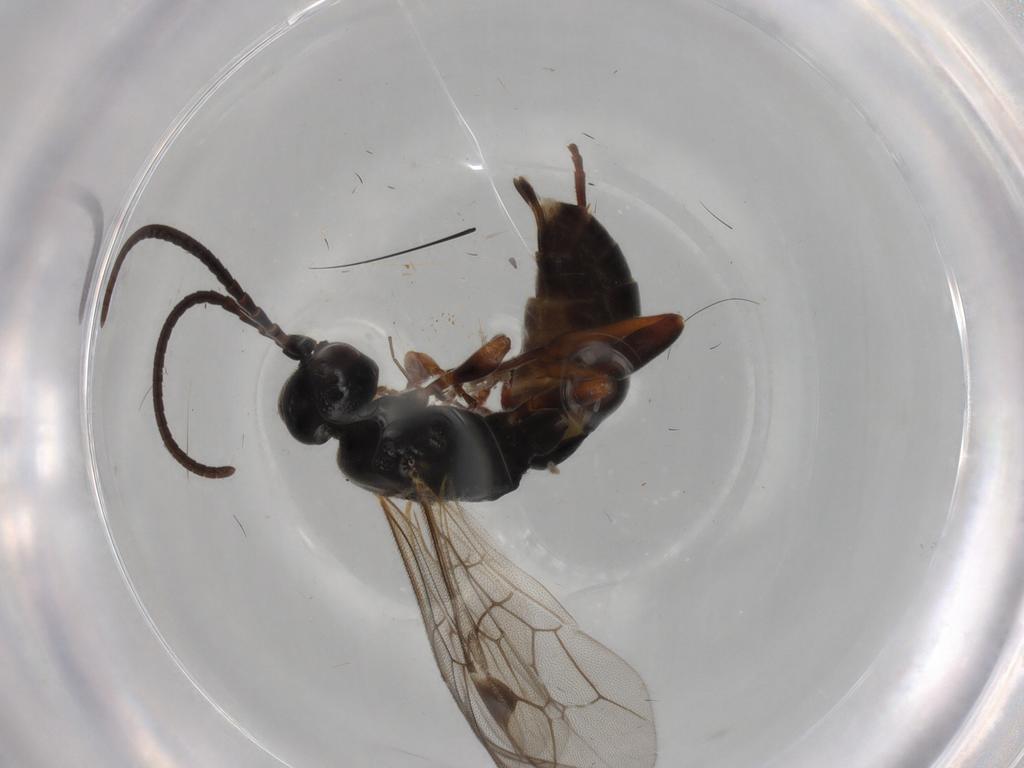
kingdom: Animalia
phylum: Arthropoda
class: Insecta
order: Hymenoptera
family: Ichneumonidae
